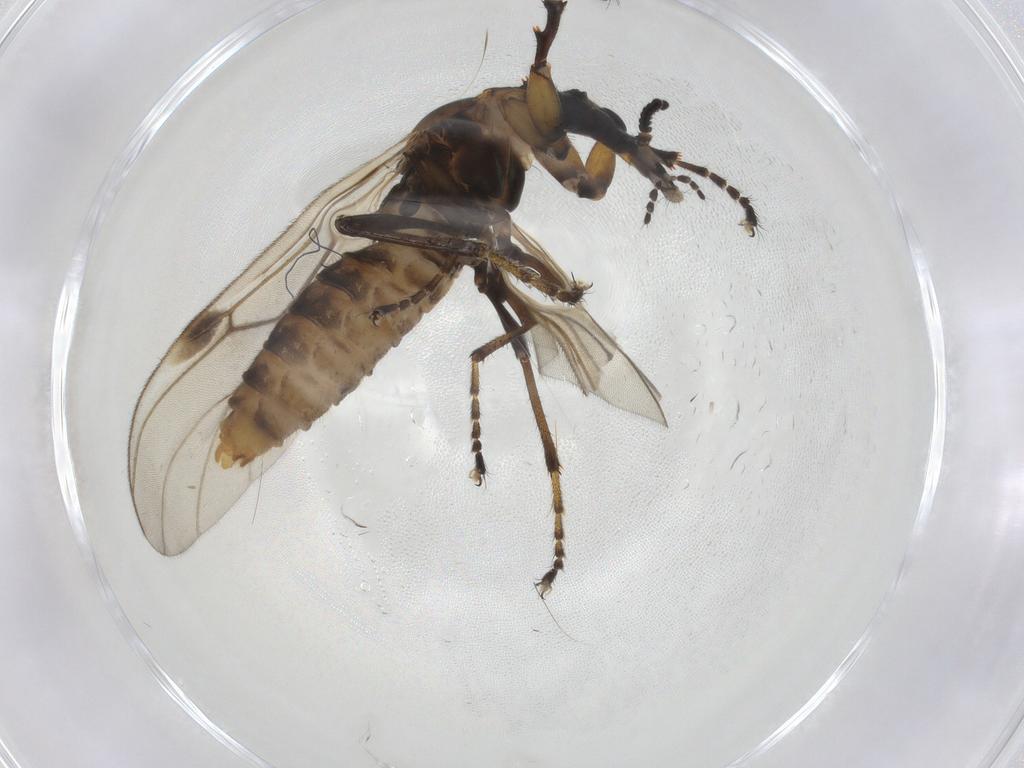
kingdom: Animalia
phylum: Arthropoda
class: Insecta
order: Diptera
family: Bibionidae
